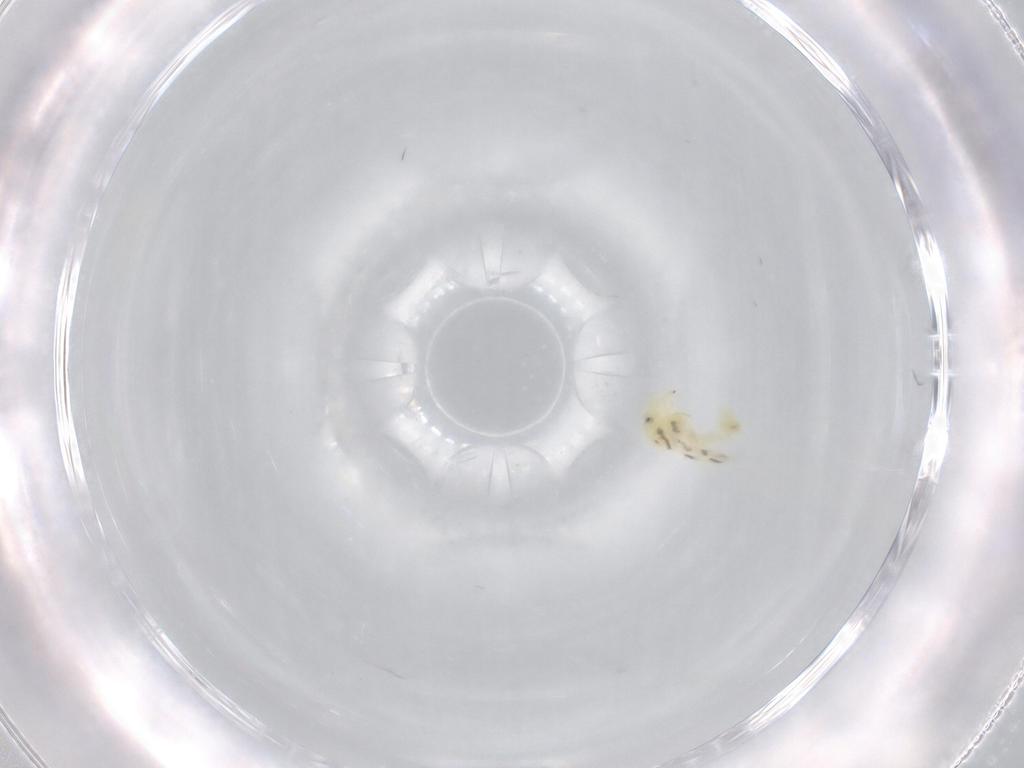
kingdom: Animalia
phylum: Arthropoda
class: Insecta
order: Hemiptera
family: Aleyrodidae
